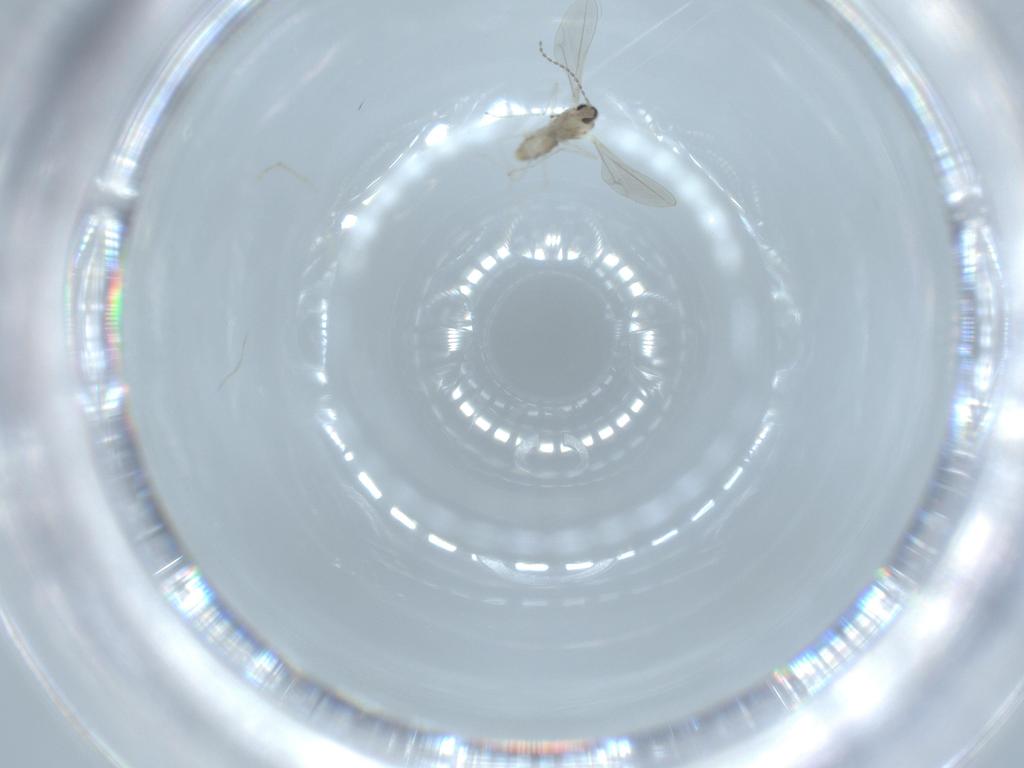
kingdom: Animalia
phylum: Arthropoda
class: Insecta
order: Diptera
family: Cecidomyiidae
